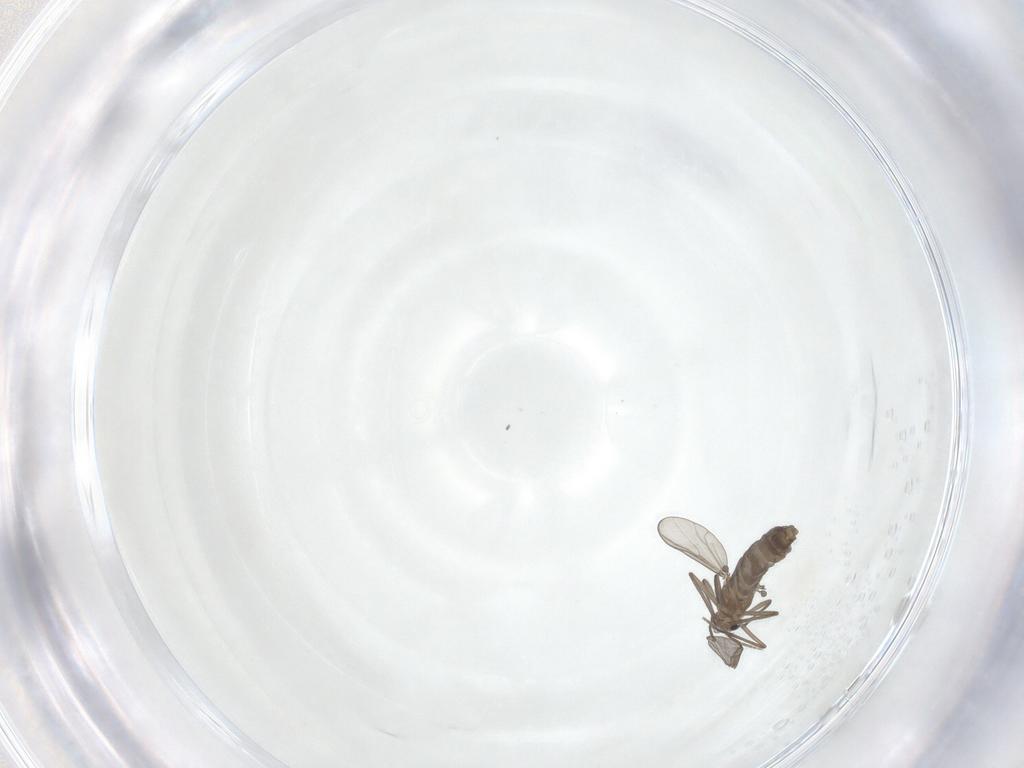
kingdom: Animalia
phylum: Arthropoda
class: Insecta
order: Diptera
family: Chironomidae
